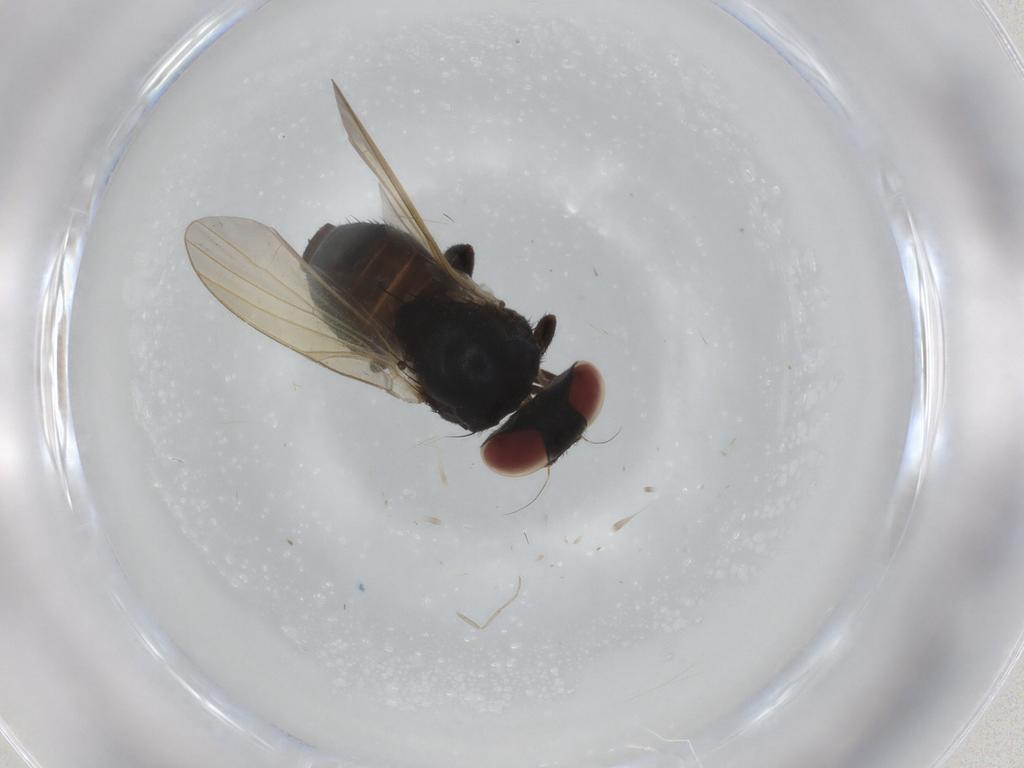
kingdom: Animalia
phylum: Arthropoda
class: Insecta
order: Diptera
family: Lonchaeidae
